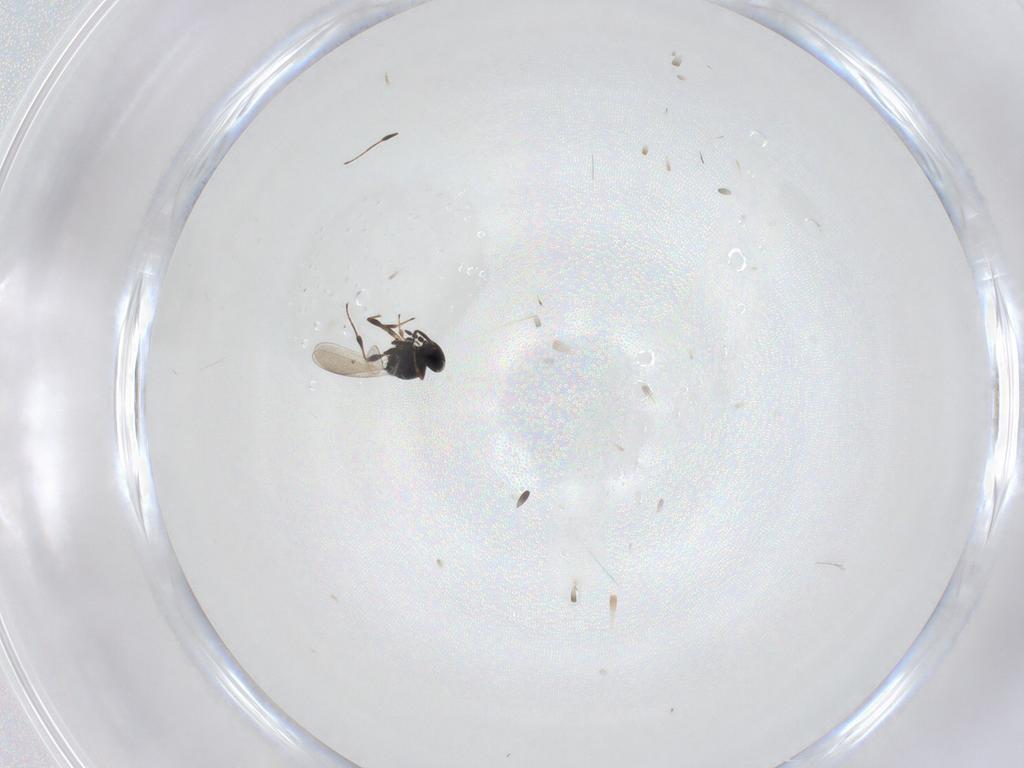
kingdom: Animalia
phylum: Arthropoda
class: Insecta
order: Hymenoptera
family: Platygastridae
